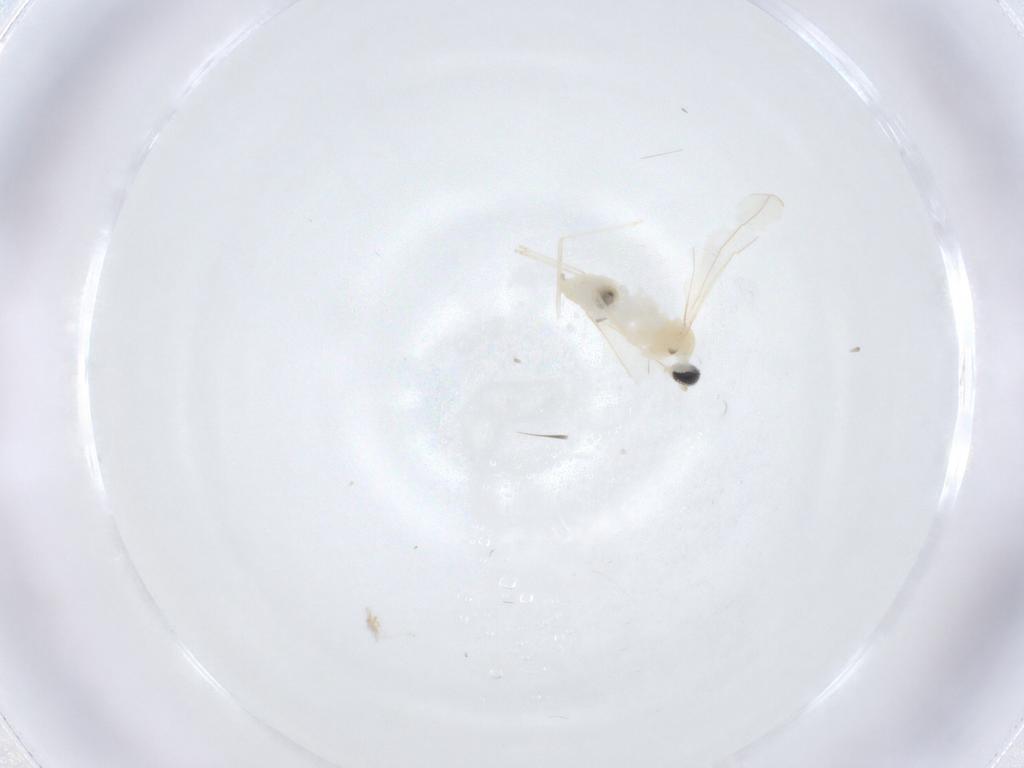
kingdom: Animalia
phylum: Arthropoda
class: Insecta
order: Diptera
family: Cecidomyiidae
